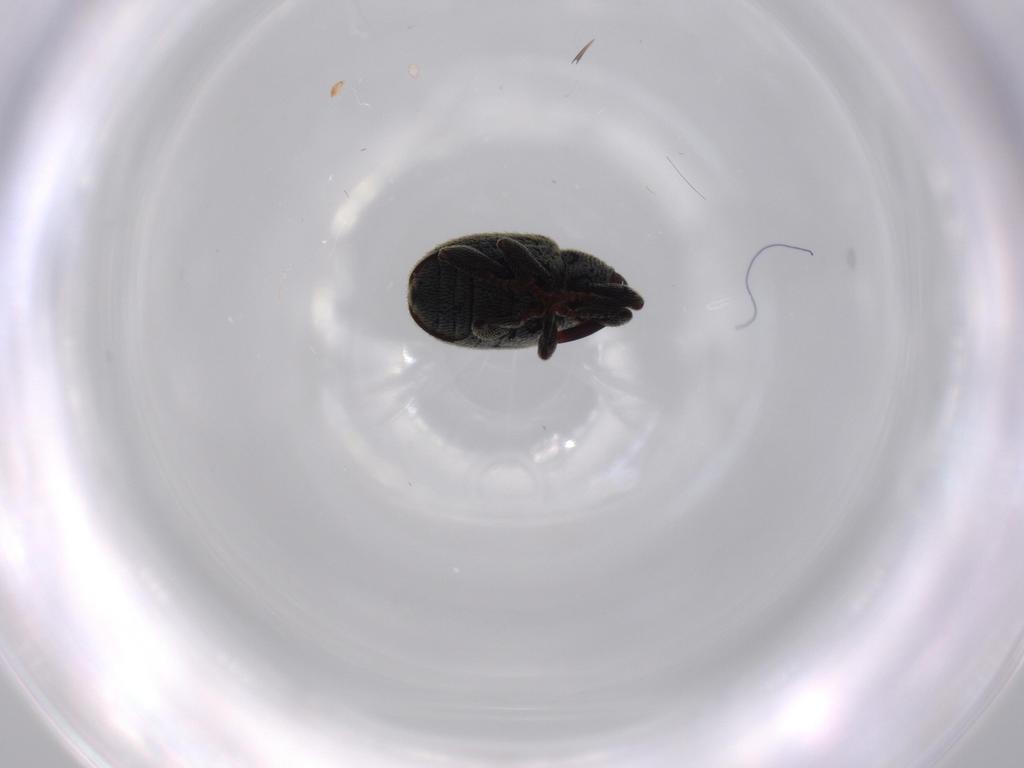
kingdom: Animalia
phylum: Arthropoda
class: Insecta
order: Coleoptera
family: Curculionidae
